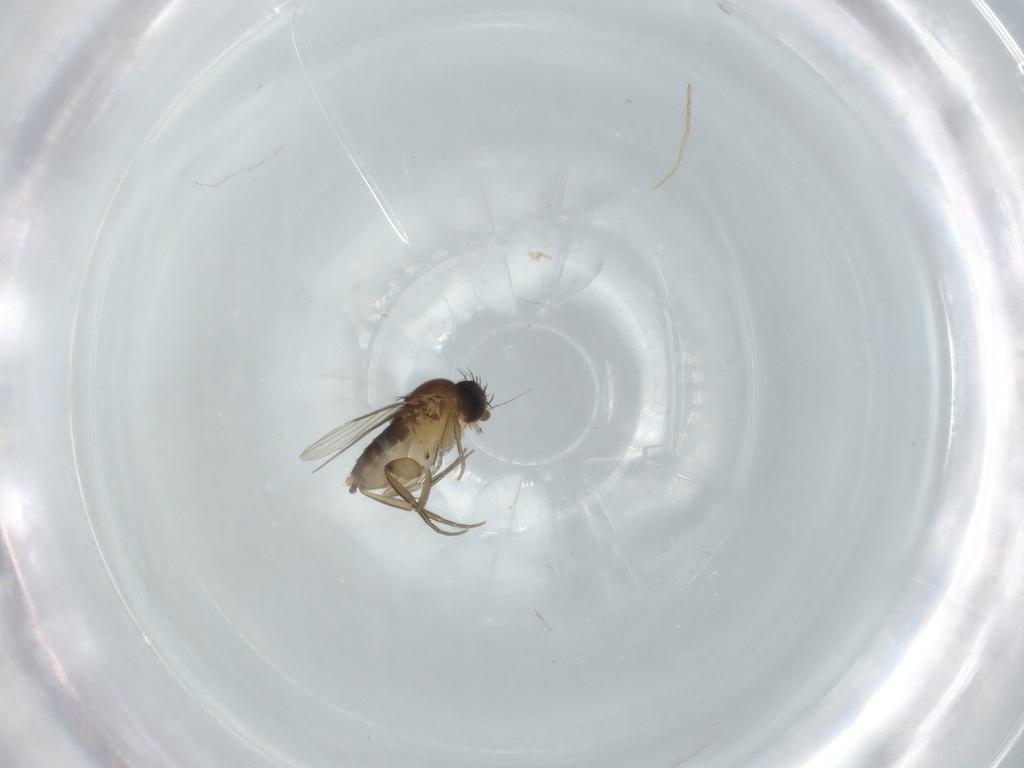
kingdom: Animalia
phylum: Arthropoda
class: Insecta
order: Diptera
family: Phoridae
